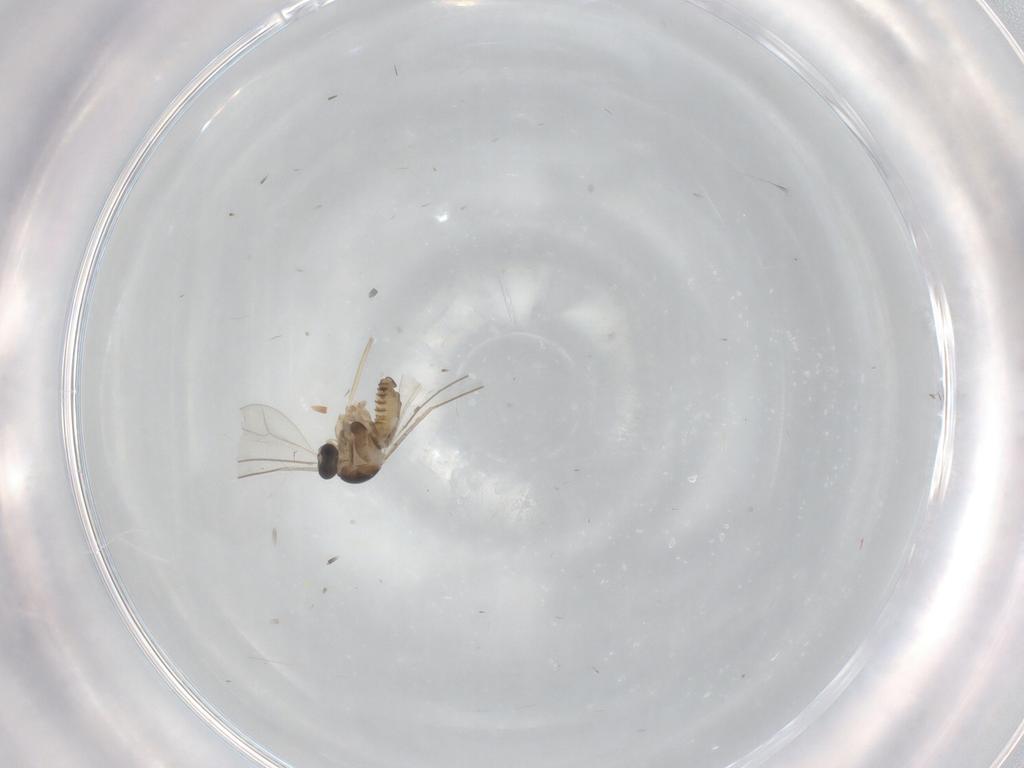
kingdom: Animalia
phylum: Arthropoda
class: Insecta
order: Diptera
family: Cecidomyiidae
